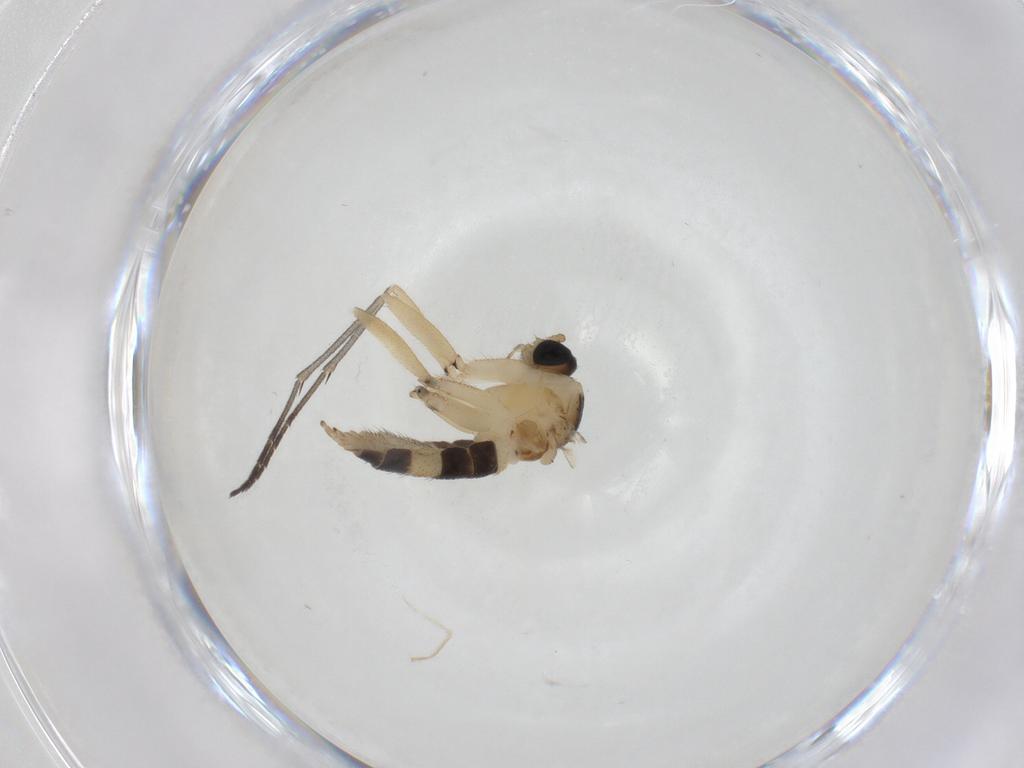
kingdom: Animalia
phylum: Arthropoda
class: Insecta
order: Diptera
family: Sciaridae
